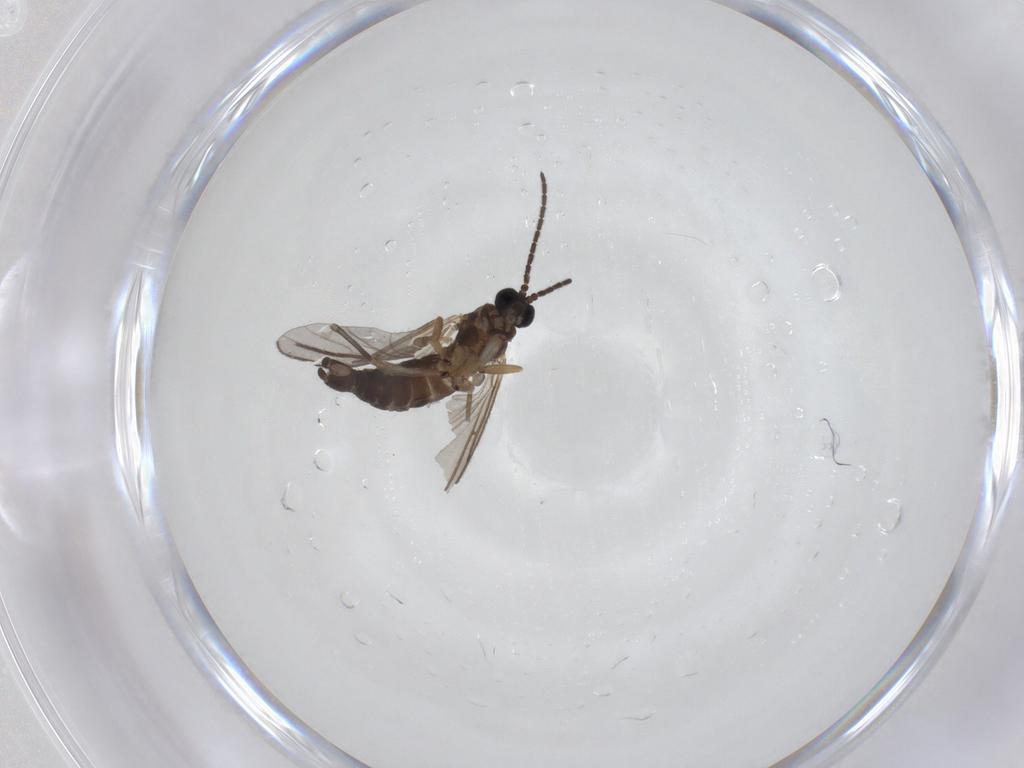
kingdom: Animalia
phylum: Arthropoda
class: Insecta
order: Diptera
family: Sciaridae
